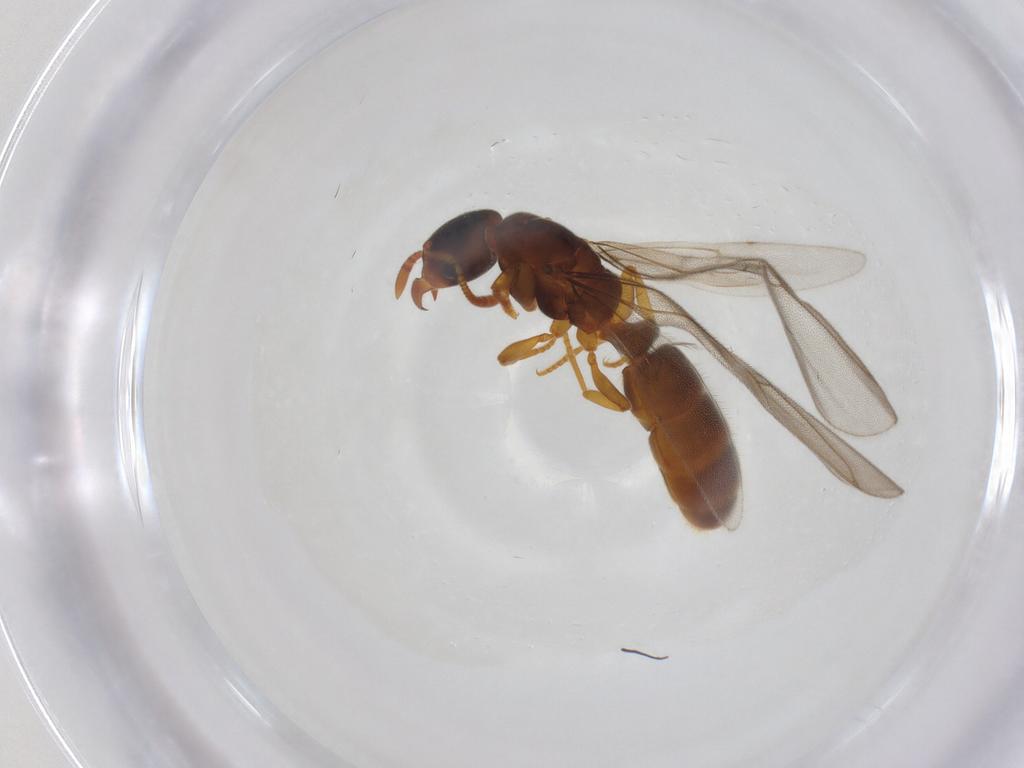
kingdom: Animalia
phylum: Arthropoda
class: Insecta
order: Hymenoptera
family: Formicidae
